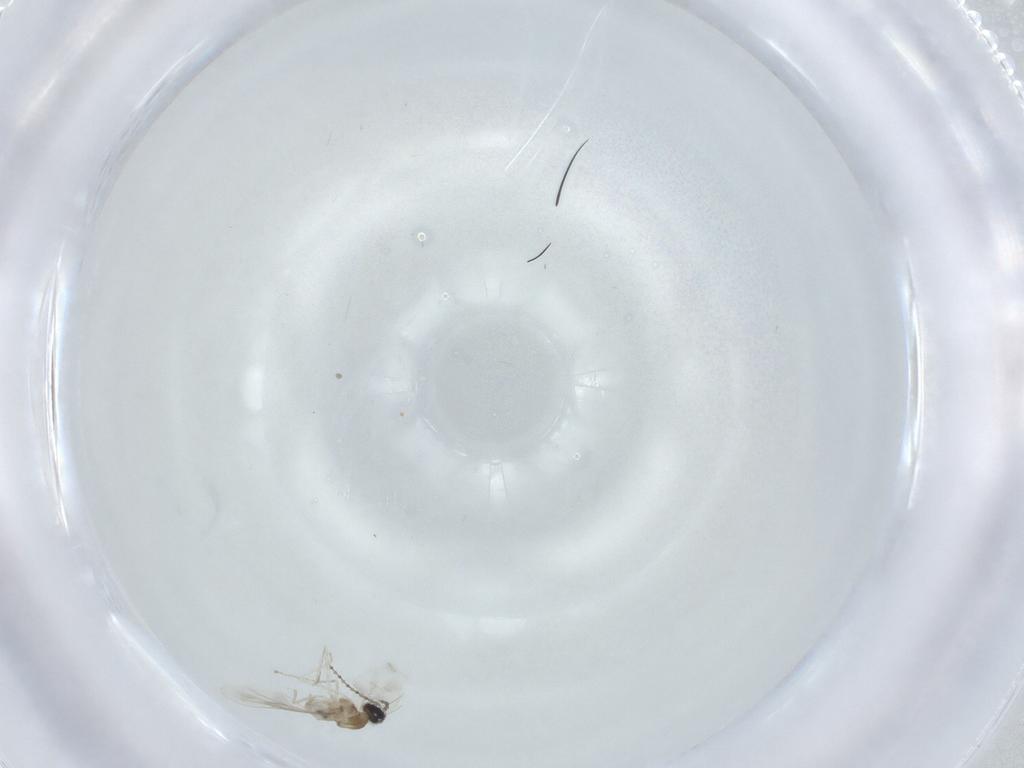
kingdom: Animalia
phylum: Arthropoda
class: Insecta
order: Diptera
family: Cecidomyiidae
